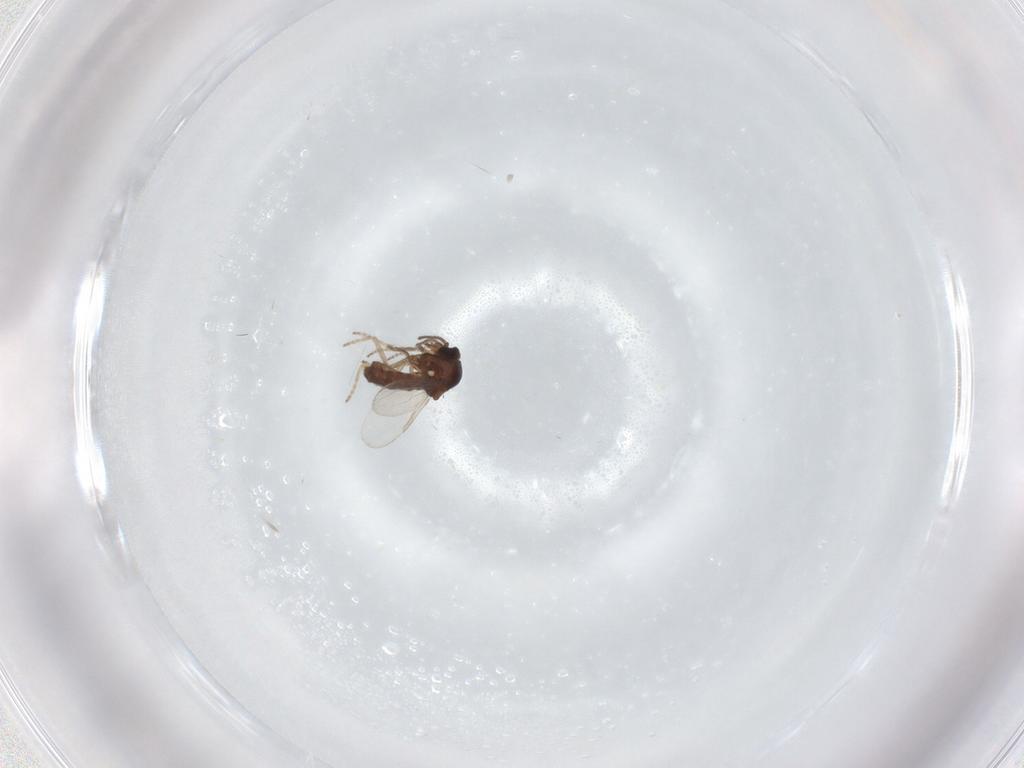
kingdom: Animalia
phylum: Arthropoda
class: Insecta
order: Diptera
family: Ceratopogonidae
